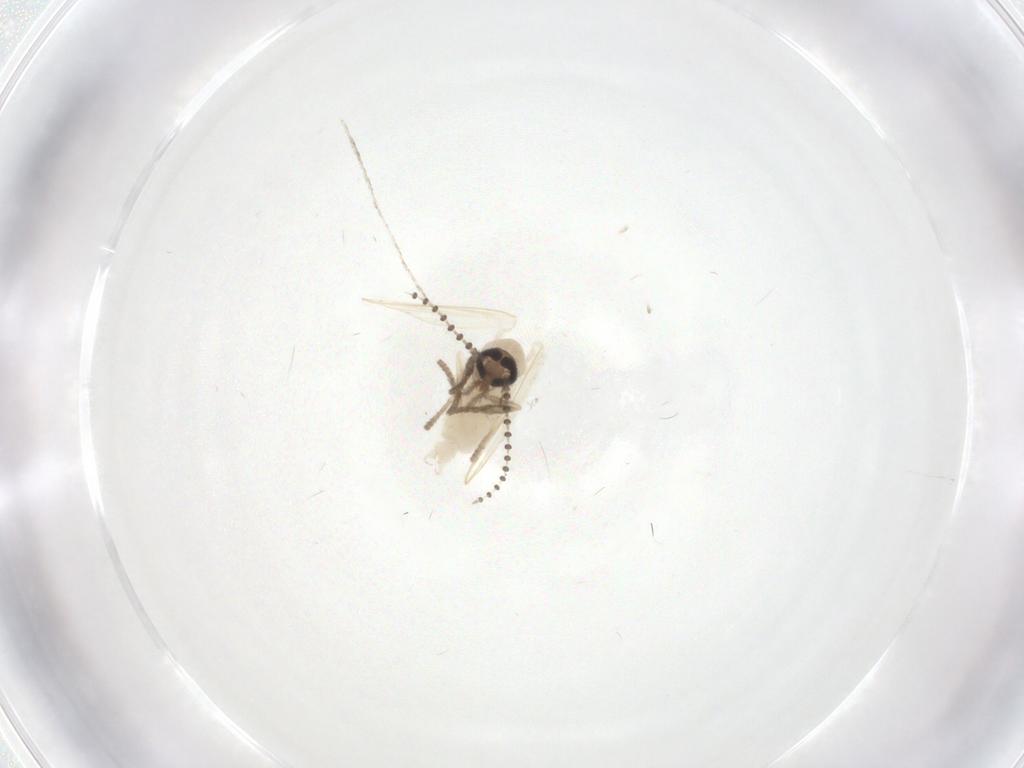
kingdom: Animalia
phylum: Arthropoda
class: Insecta
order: Diptera
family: Psychodidae
